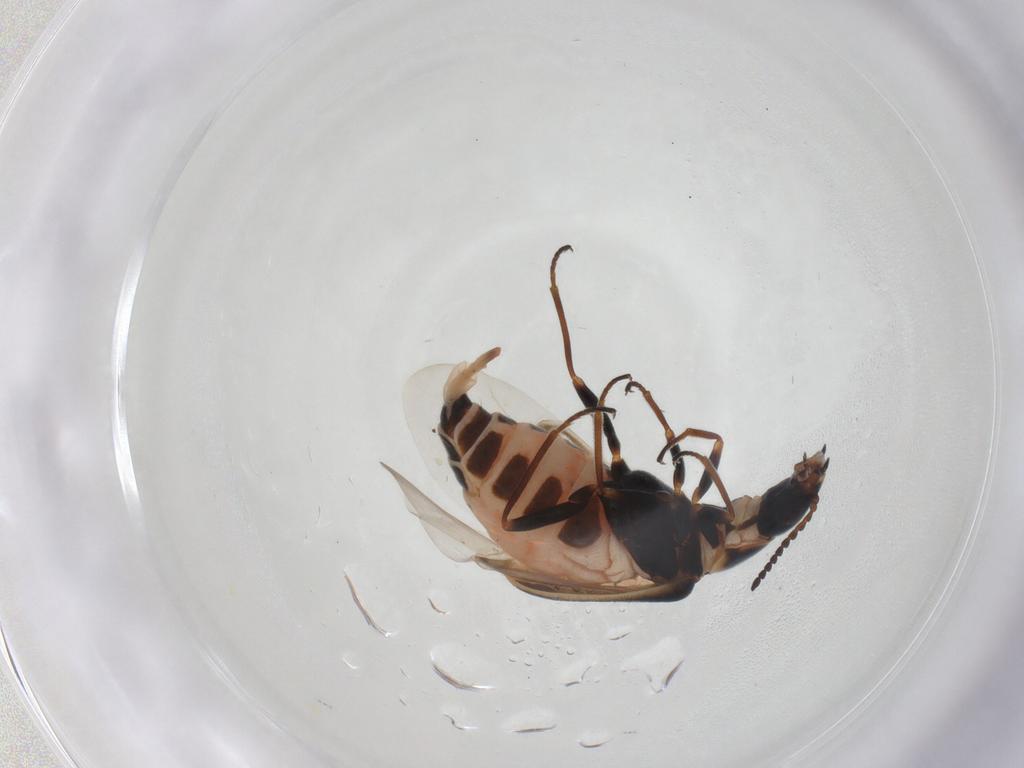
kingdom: Animalia
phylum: Arthropoda
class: Insecta
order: Coleoptera
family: Melyridae
